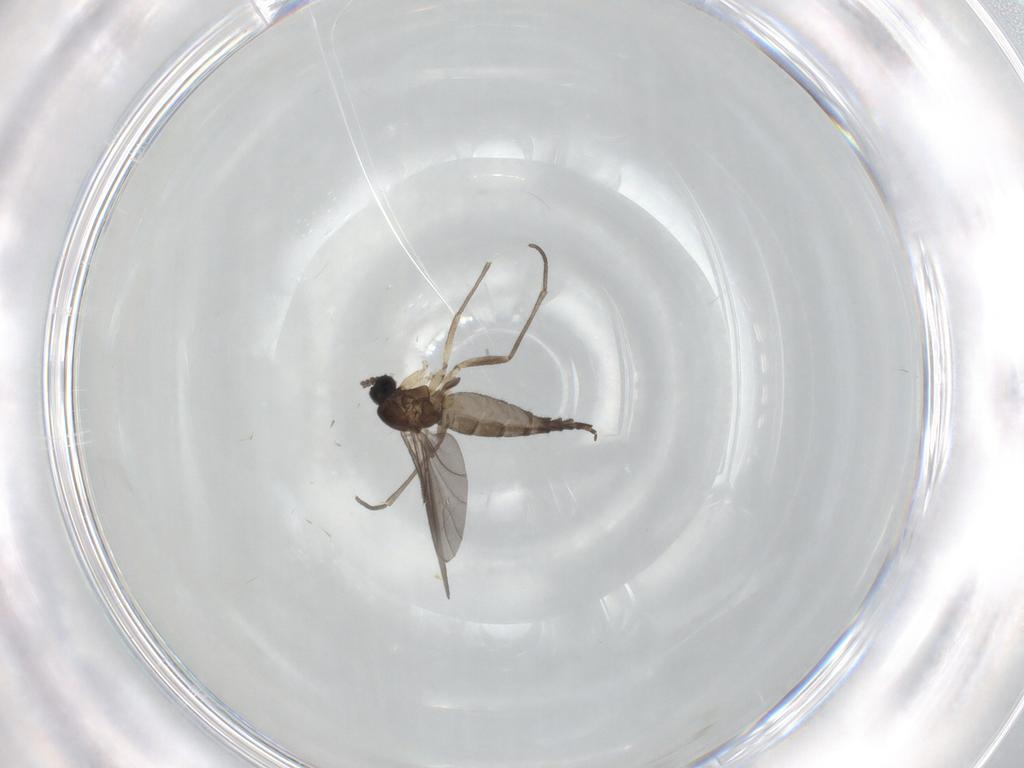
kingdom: Animalia
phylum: Arthropoda
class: Insecta
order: Diptera
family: Sciaridae
